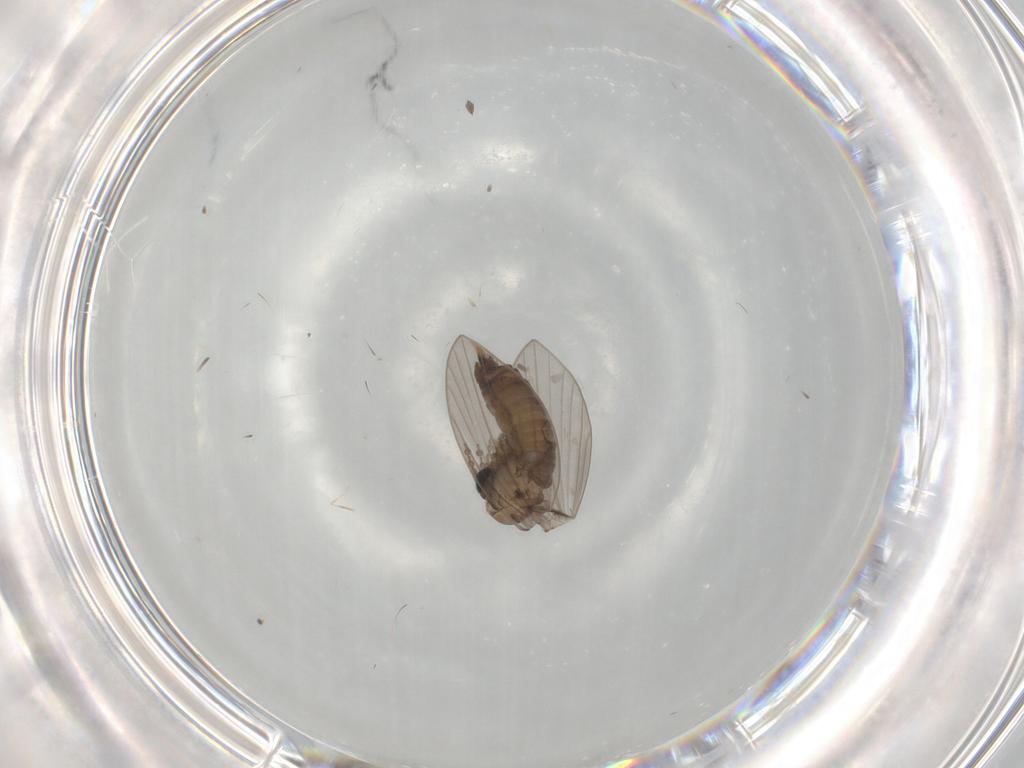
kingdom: Animalia
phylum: Arthropoda
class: Insecta
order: Diptera
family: Psychodidae
